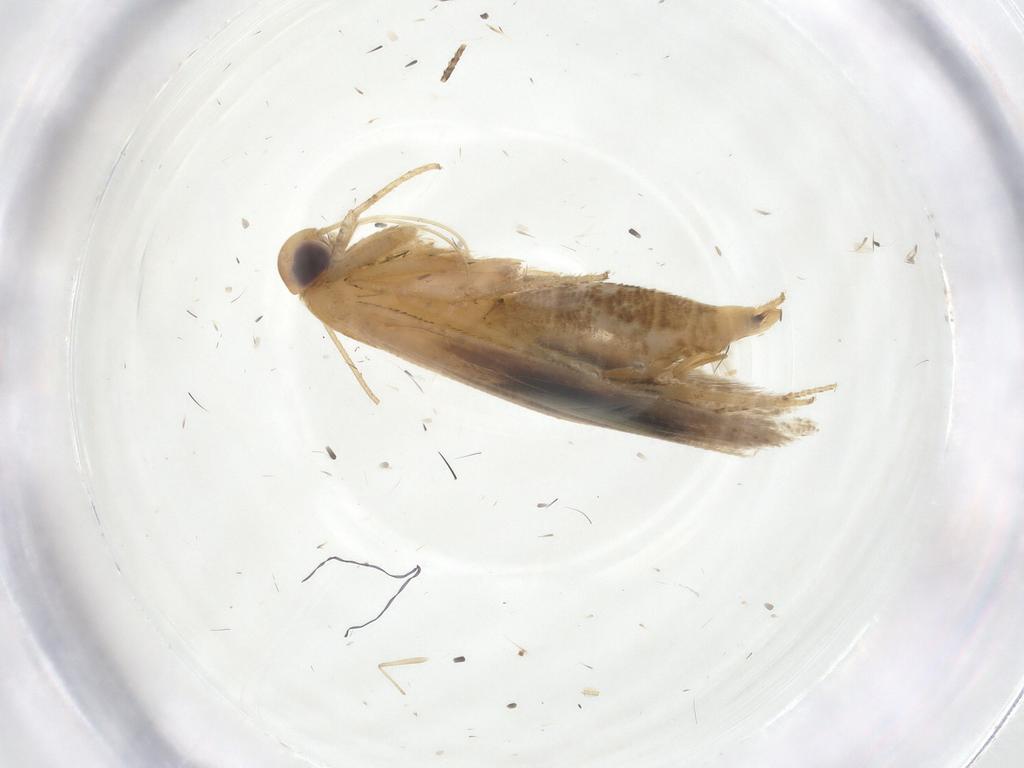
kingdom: Animalia
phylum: Arthropoda
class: Insecta
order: Lepidoptera
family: Momphidae
